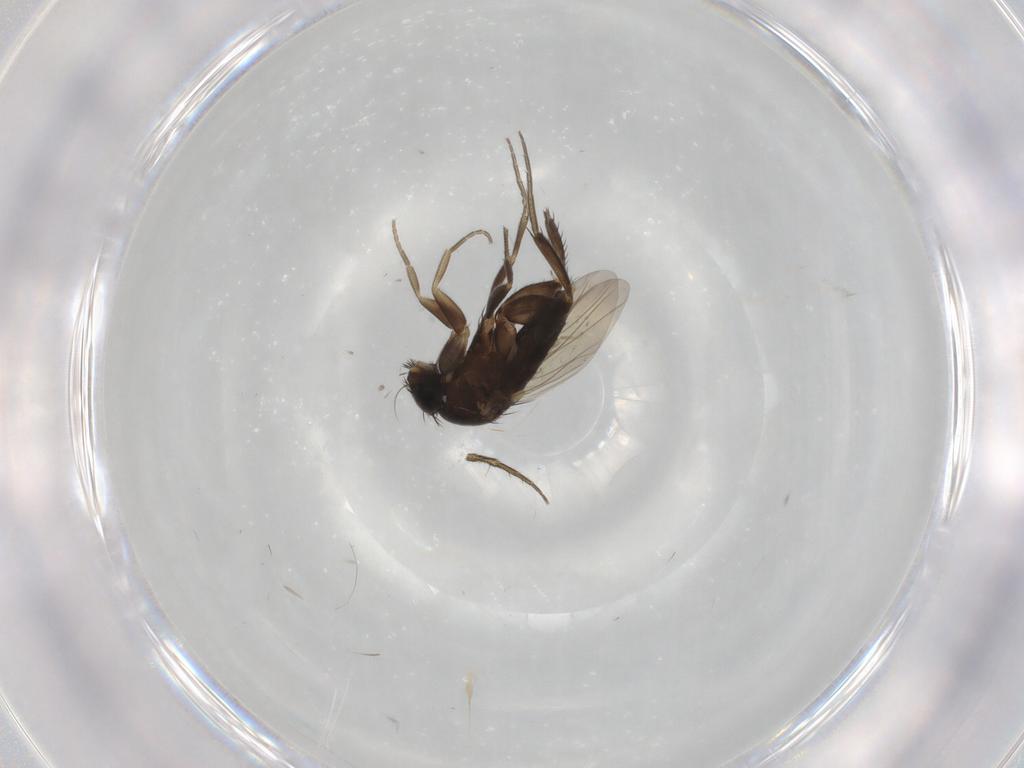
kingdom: Animalia
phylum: Arthropoda
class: Insecta
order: Diptera
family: Phoridae
